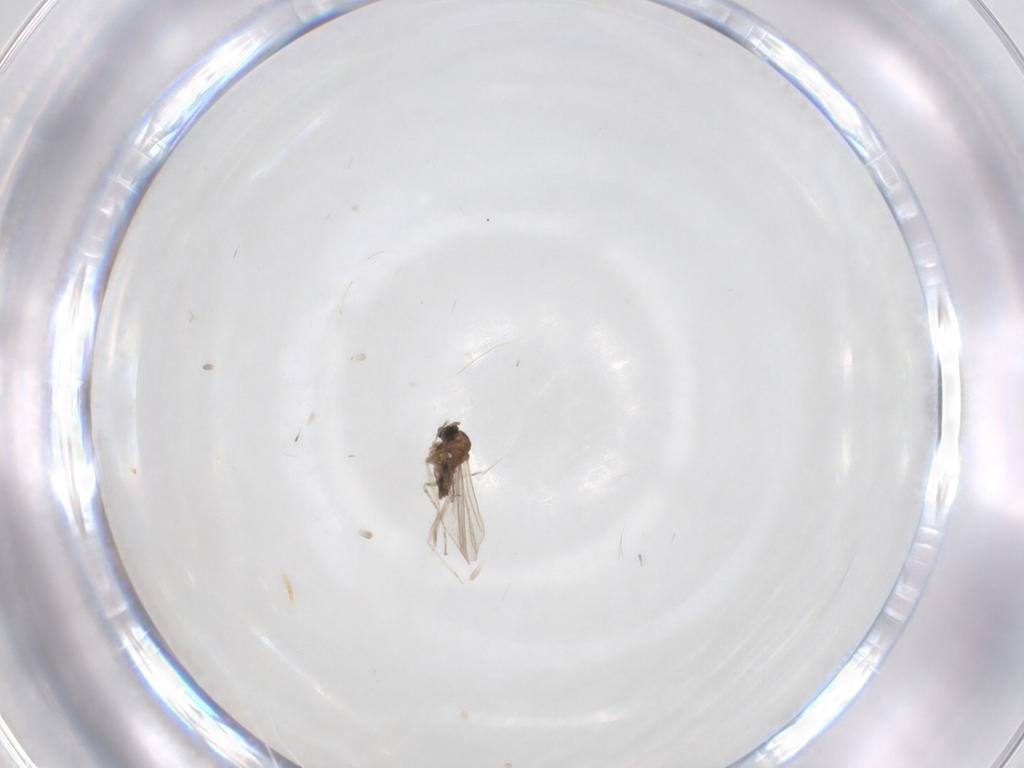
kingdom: Animalia
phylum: Arthropoda
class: Insecta
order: Diptera
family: Cecidomyiidae
